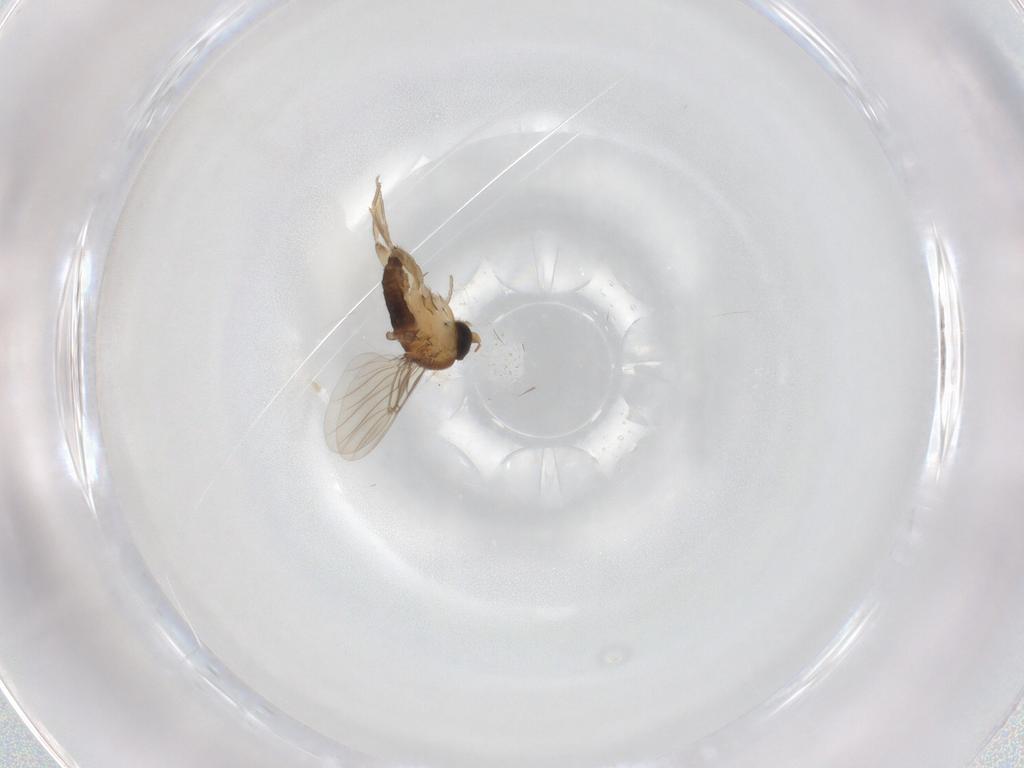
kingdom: Animalia
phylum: Arthropoda
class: Insecta
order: Diptera
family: Phoridae
